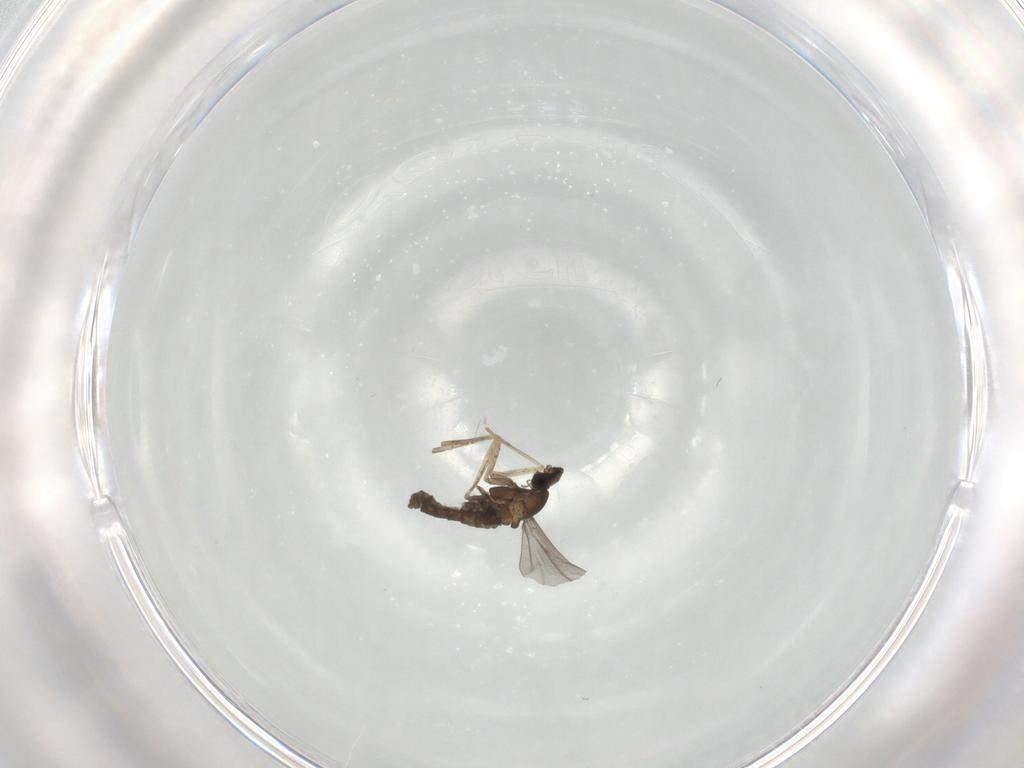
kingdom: Animalia
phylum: Arthropoda
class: Insecta
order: Diptera
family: Cecidomyiidae
